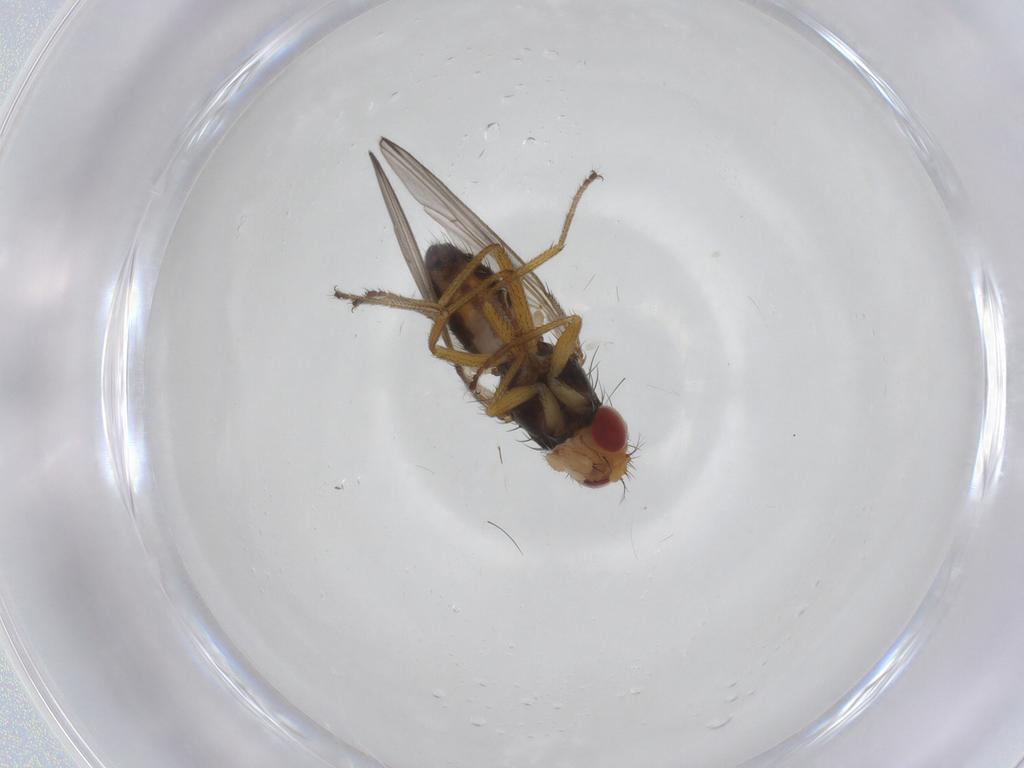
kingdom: Animalia
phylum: Arthropoda
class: Insecta
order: Diptera
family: Drosophilidae
